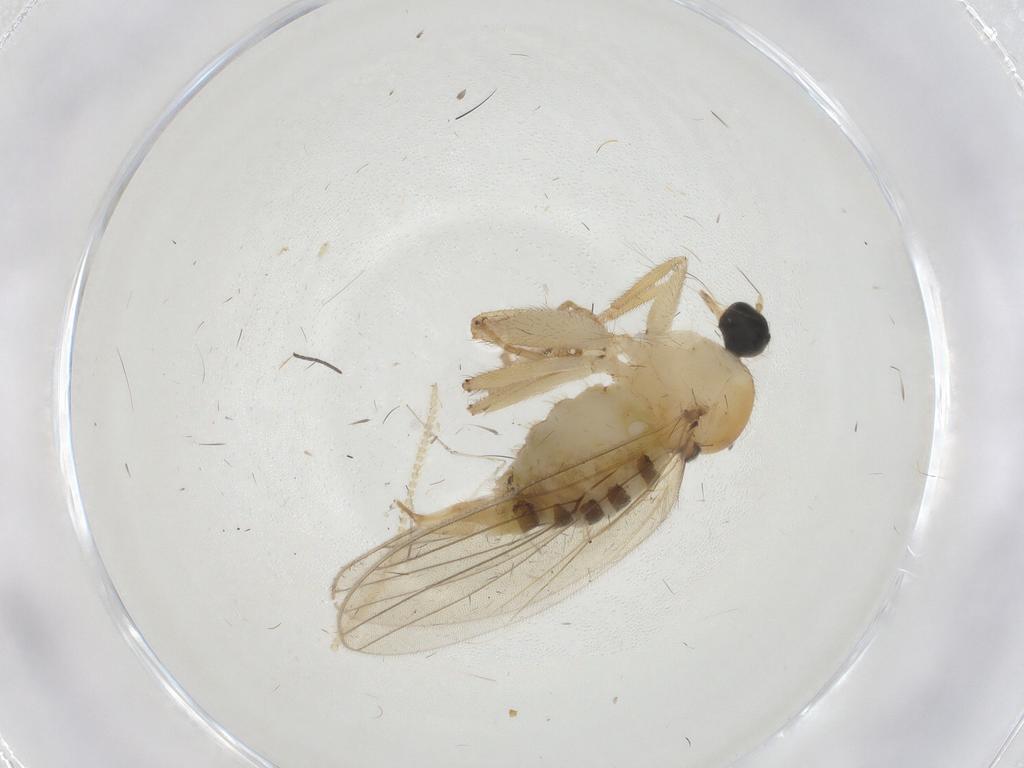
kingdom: Animalia
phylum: Arthropoda
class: Insecta
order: Diptera
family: Hybotidae
